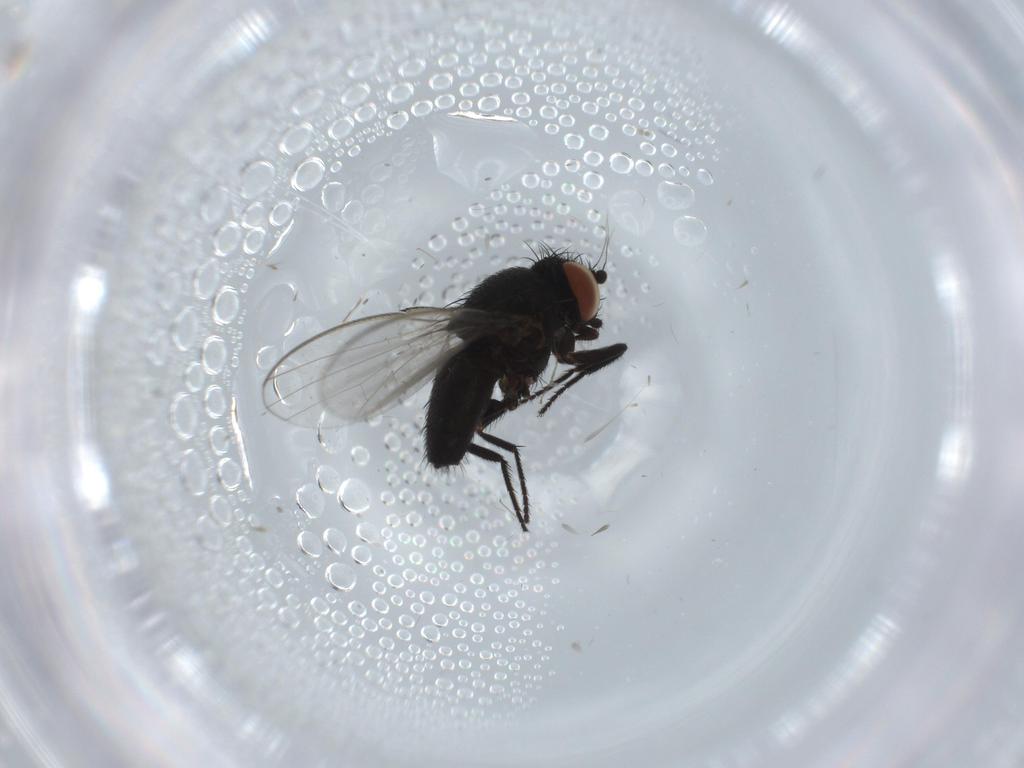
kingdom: Animalia
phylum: Arthropoda
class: Insecta
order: Diptera
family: Milichiidae
